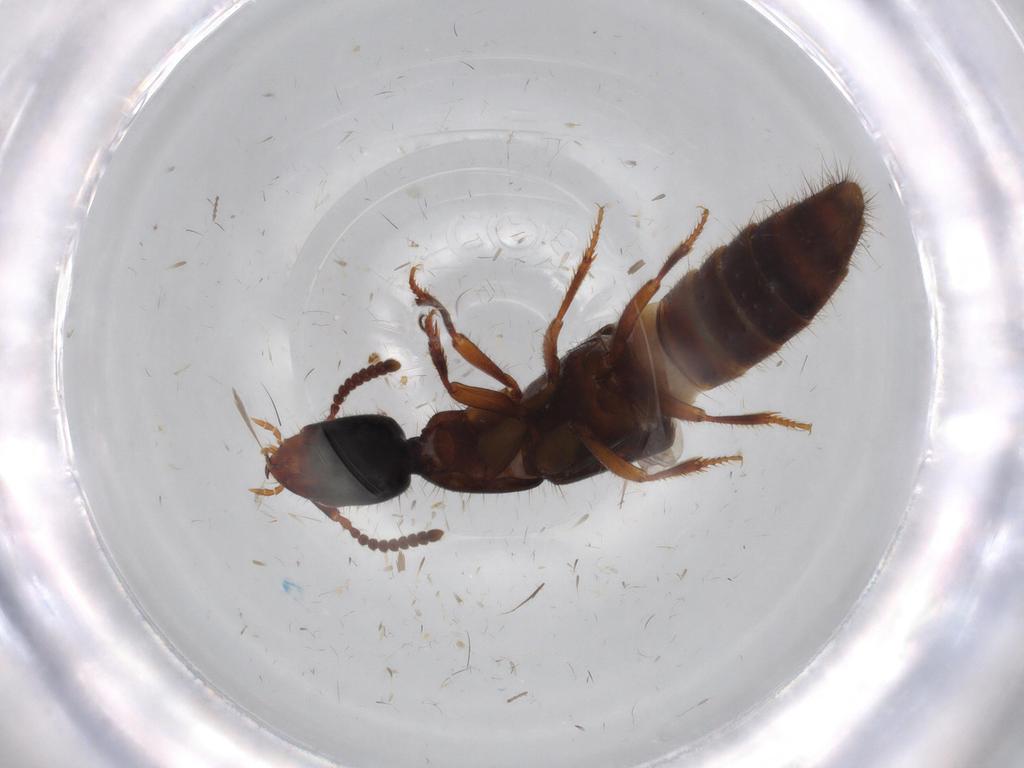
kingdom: Animalia
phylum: Arthropoda
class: Insecta
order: Coleoptera
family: Staphylinidae
